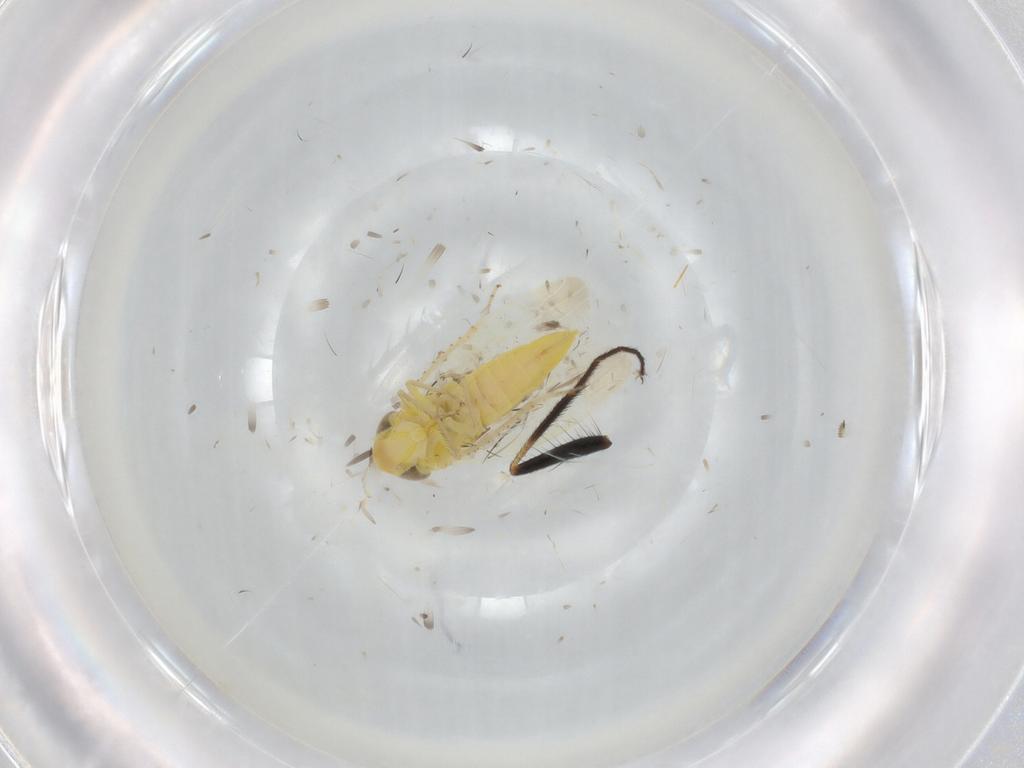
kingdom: Animalia
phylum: Arthropoda
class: Insecta
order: Hemiptera
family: Cicadellidae
